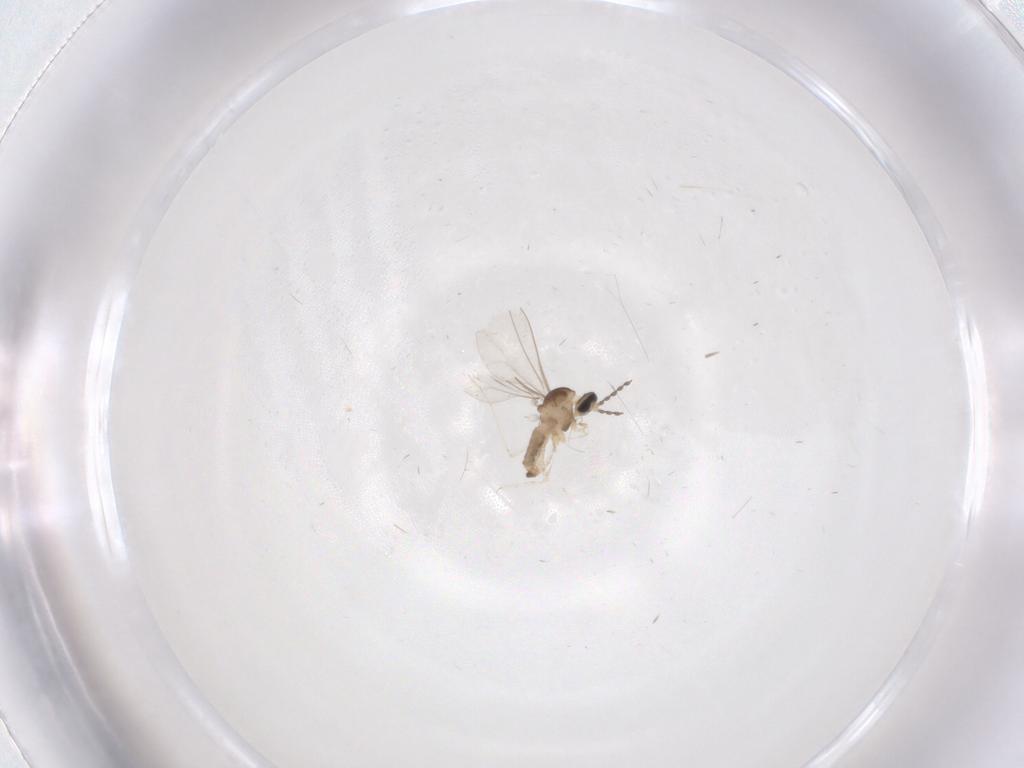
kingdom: Animalia
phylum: Arthropoda
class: Insecta
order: Diptera
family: Cecidomyiidae
